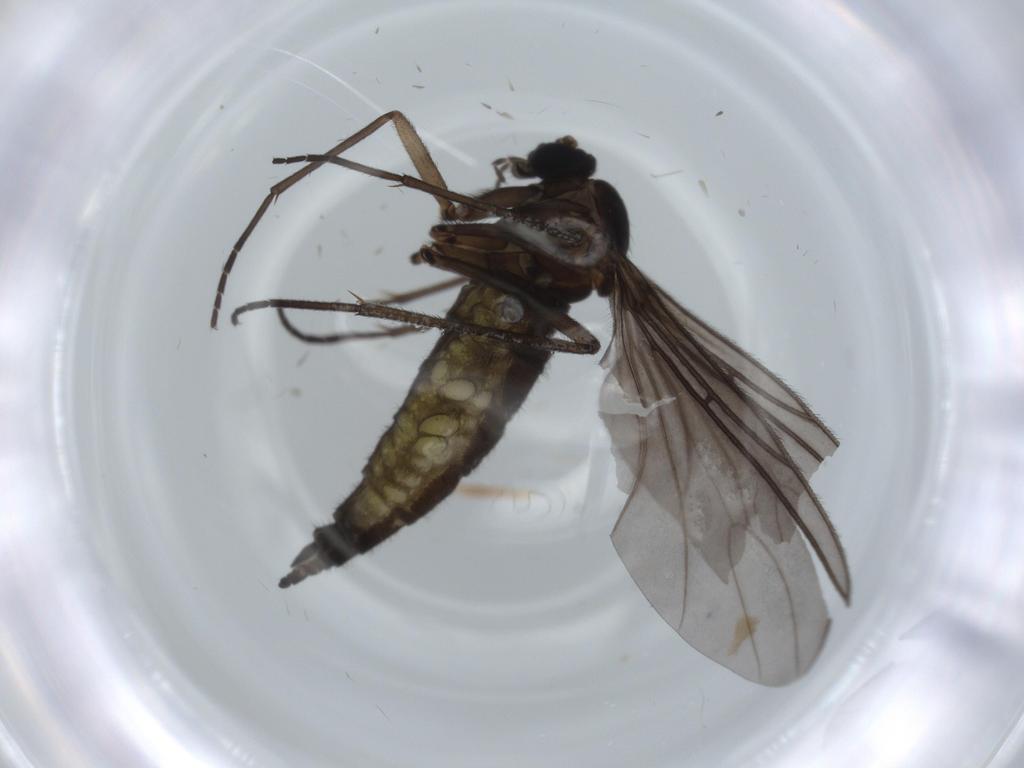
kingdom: Animalia
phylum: Arthropoda
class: Insecta
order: Diptera
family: Sciaridae
